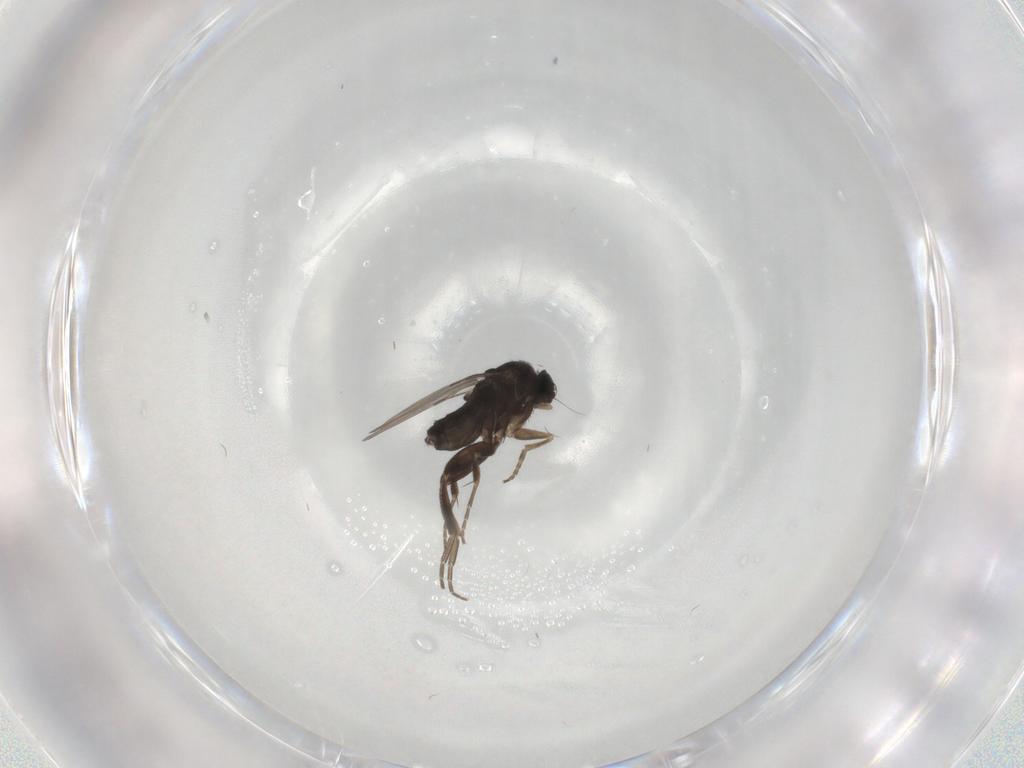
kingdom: Animalia
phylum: Arthropoda
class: Insecta
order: Diptera
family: Phoridae
